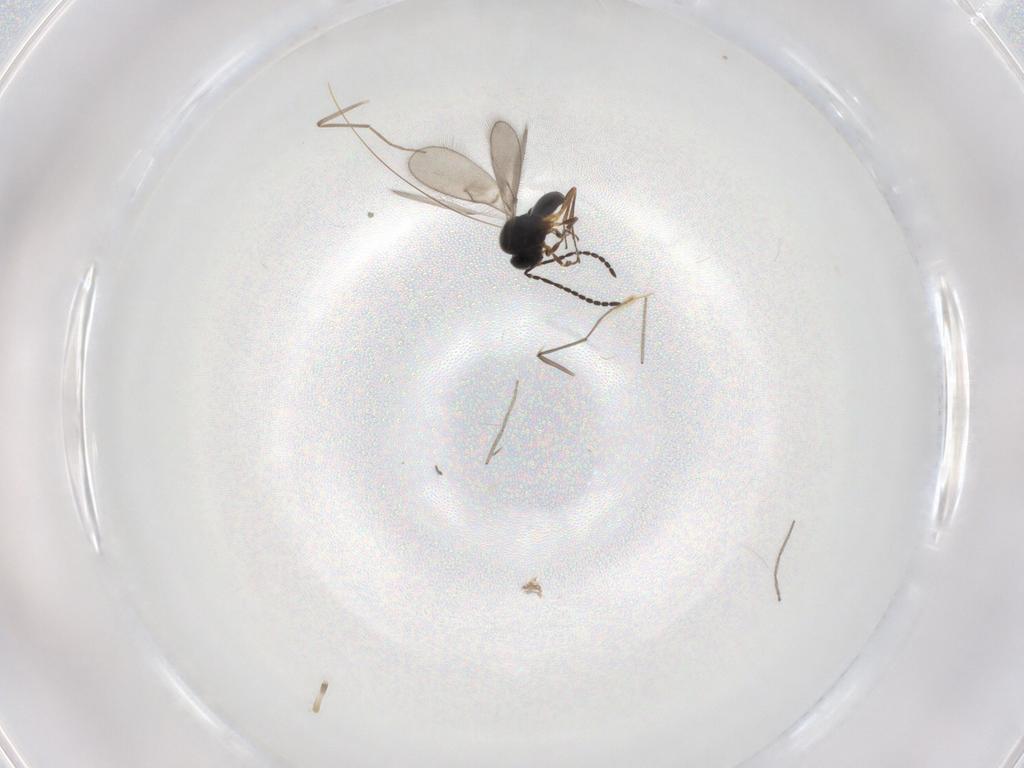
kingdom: Animalia
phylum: Arthropoda
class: Insecta
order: Hymenoptera
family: Scelionidae
